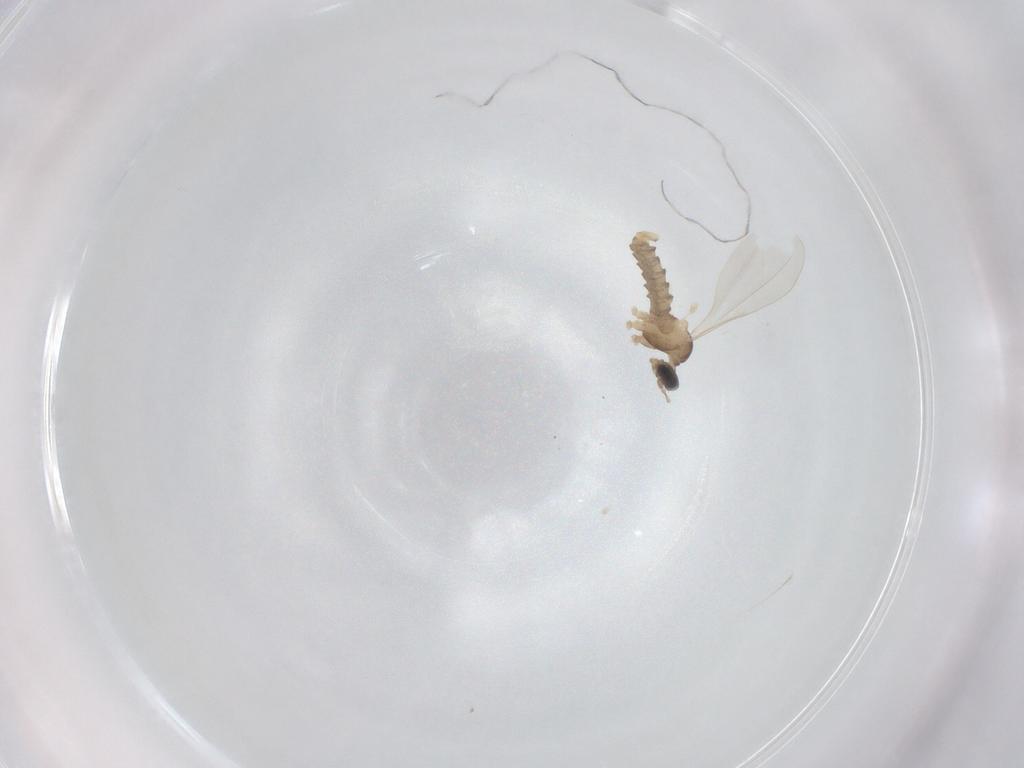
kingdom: Animalia
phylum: Arthropoda
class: Insecta
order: Diptera
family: Cecidomyiidae
